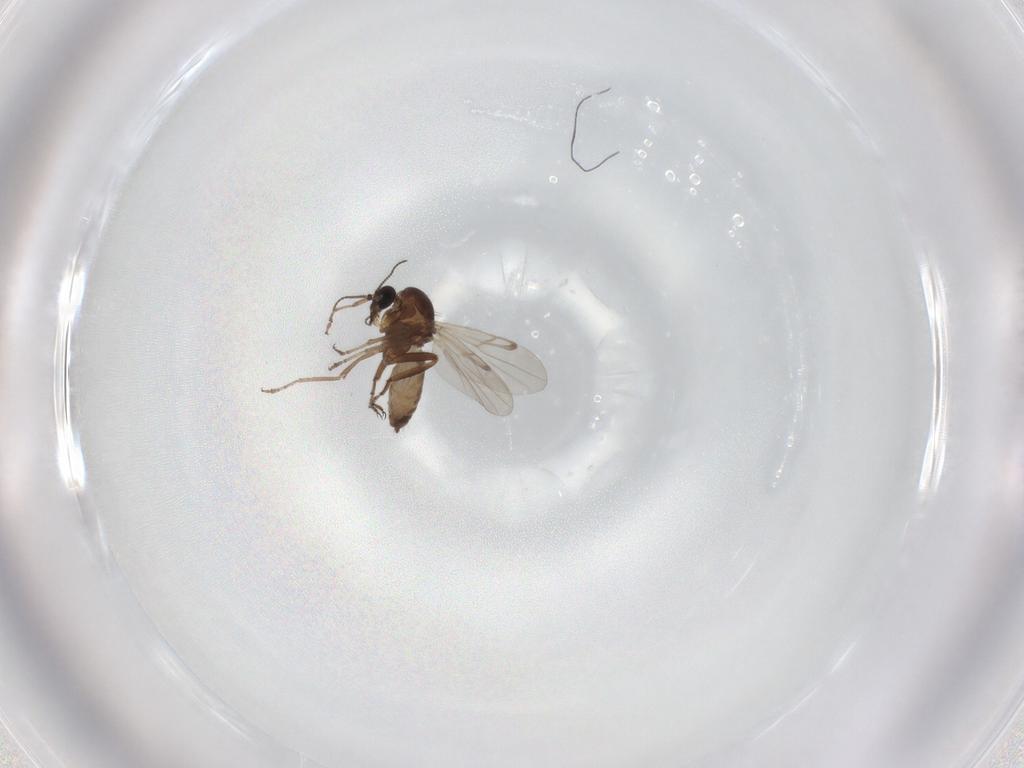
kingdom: Animalia
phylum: Arthropoda
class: Insecta
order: Diptera
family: Ceratopogonidae
